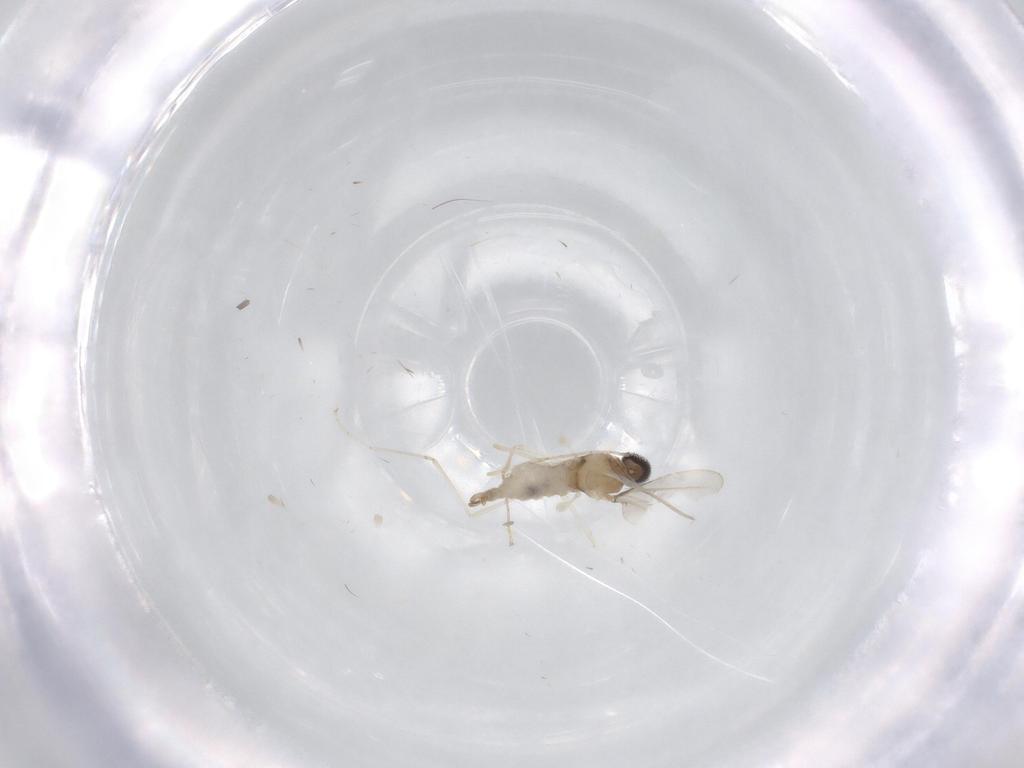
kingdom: Animalia
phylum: Arthropoda
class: Insecta
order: Diptera
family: Cecidomyiidae
